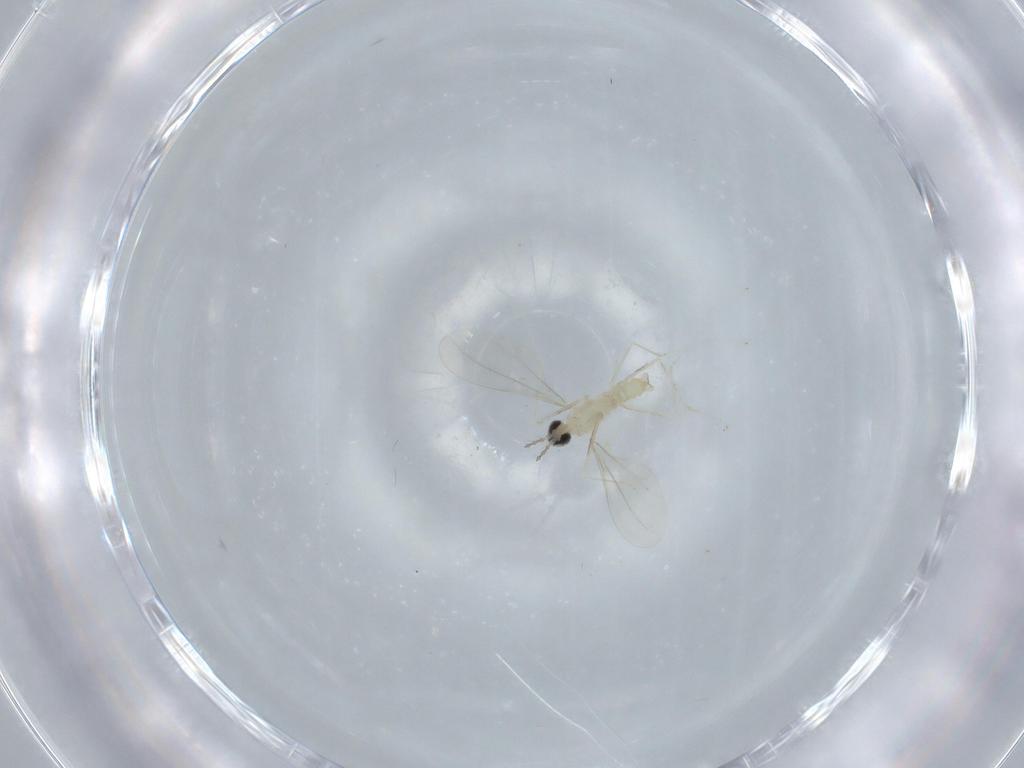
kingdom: Animalia
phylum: Arthropoda
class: Insecta
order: Diptera
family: Cecidomyiidae
